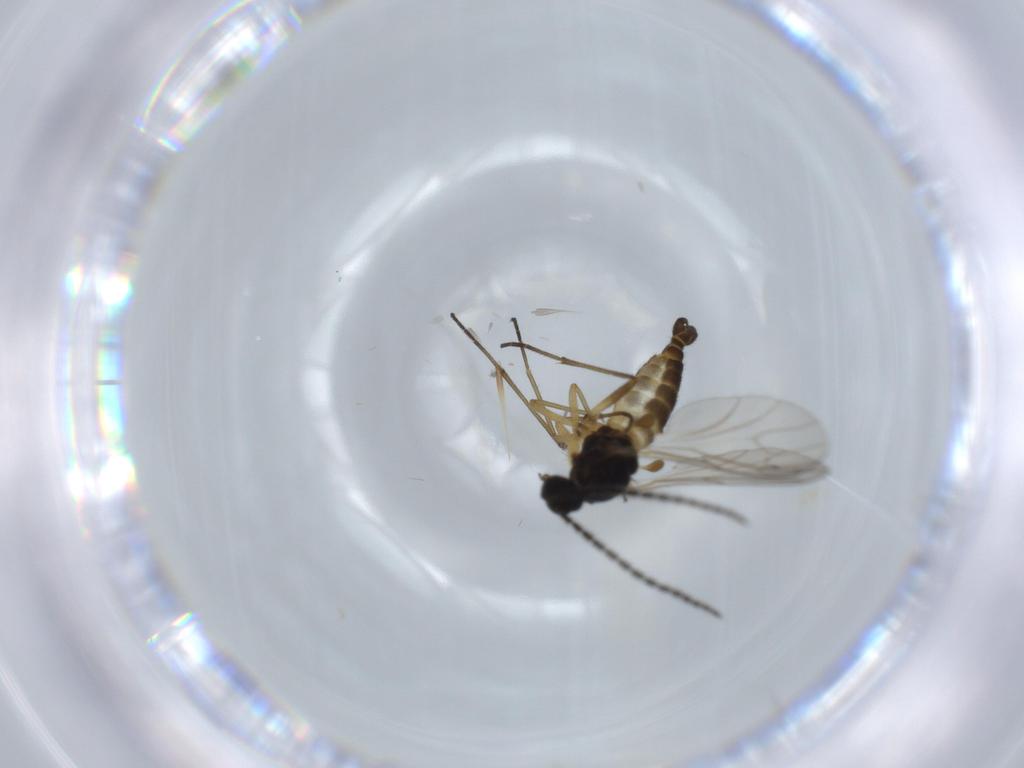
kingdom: Animalia
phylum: Arthropoda
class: Insecta
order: Diptera
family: Sciaridae
